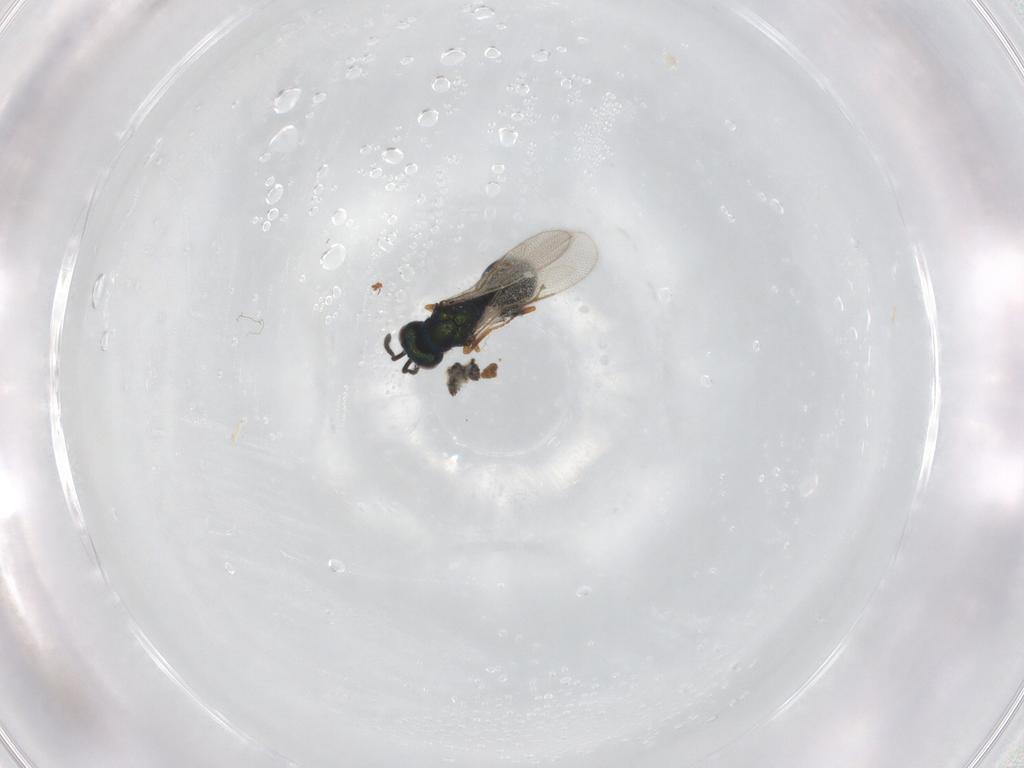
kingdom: Animalia
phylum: Arthropoda
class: Insecta
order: Hymenoptera
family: Chalcidoidea_incertae_sedis
